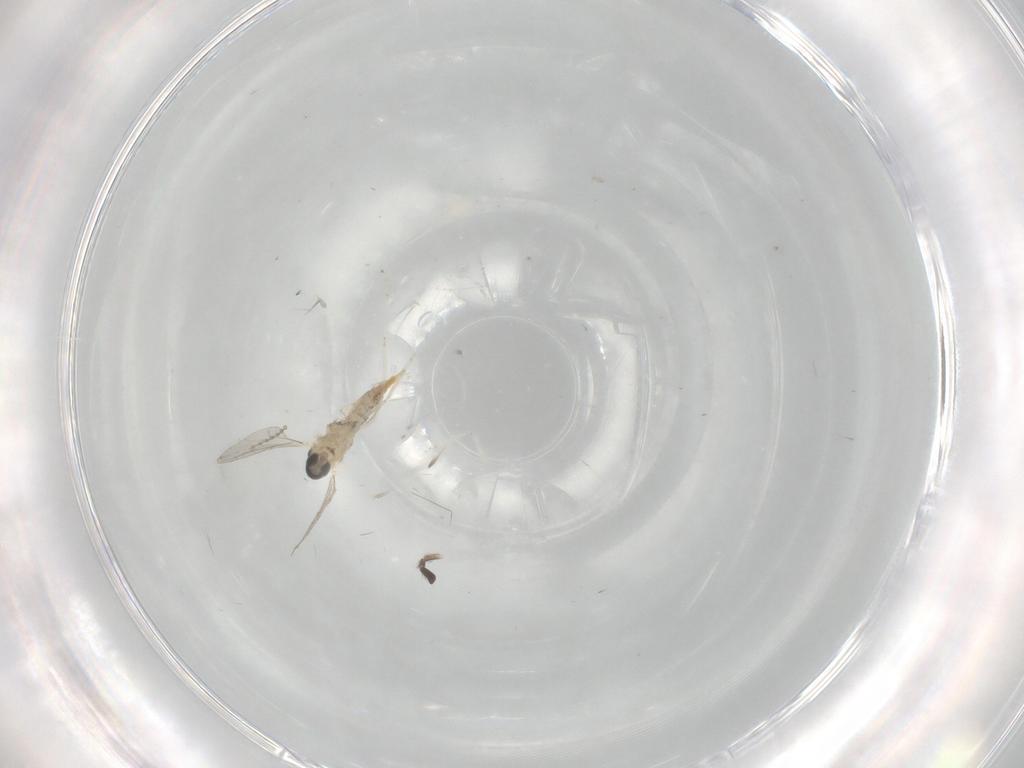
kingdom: Animalia
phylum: Arthropoda
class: Insecta
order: Diptera
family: Cecidomyiidae
